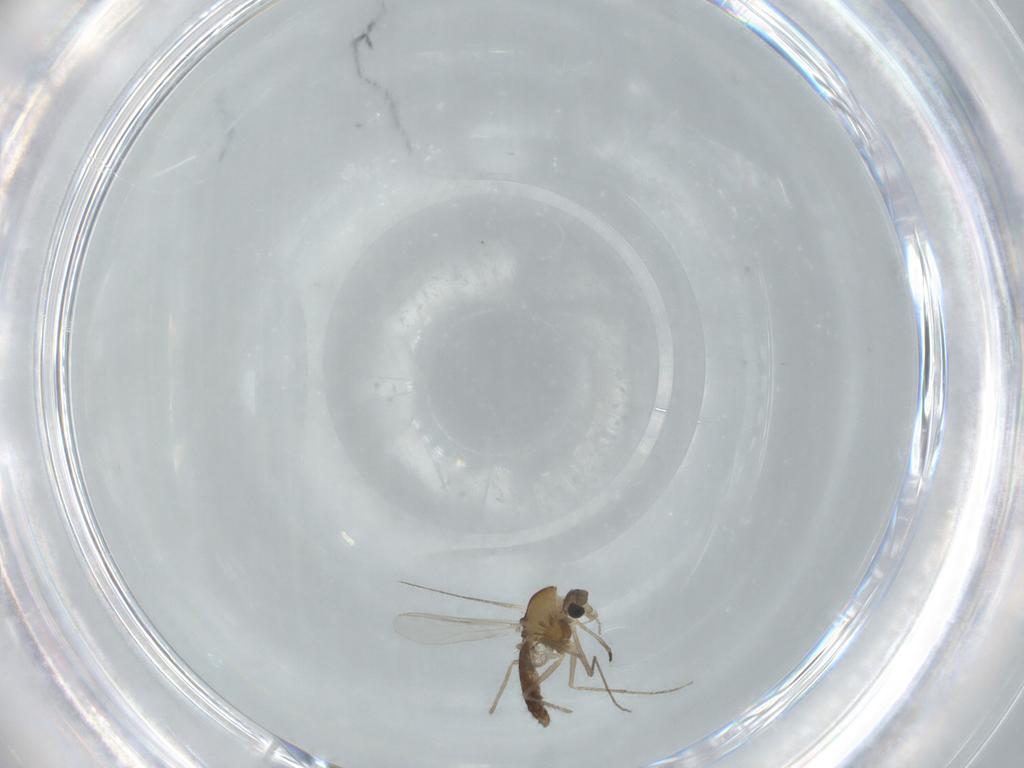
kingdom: Animalia
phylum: Arthropoda
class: Insecta
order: Diptera
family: Chironomidae
